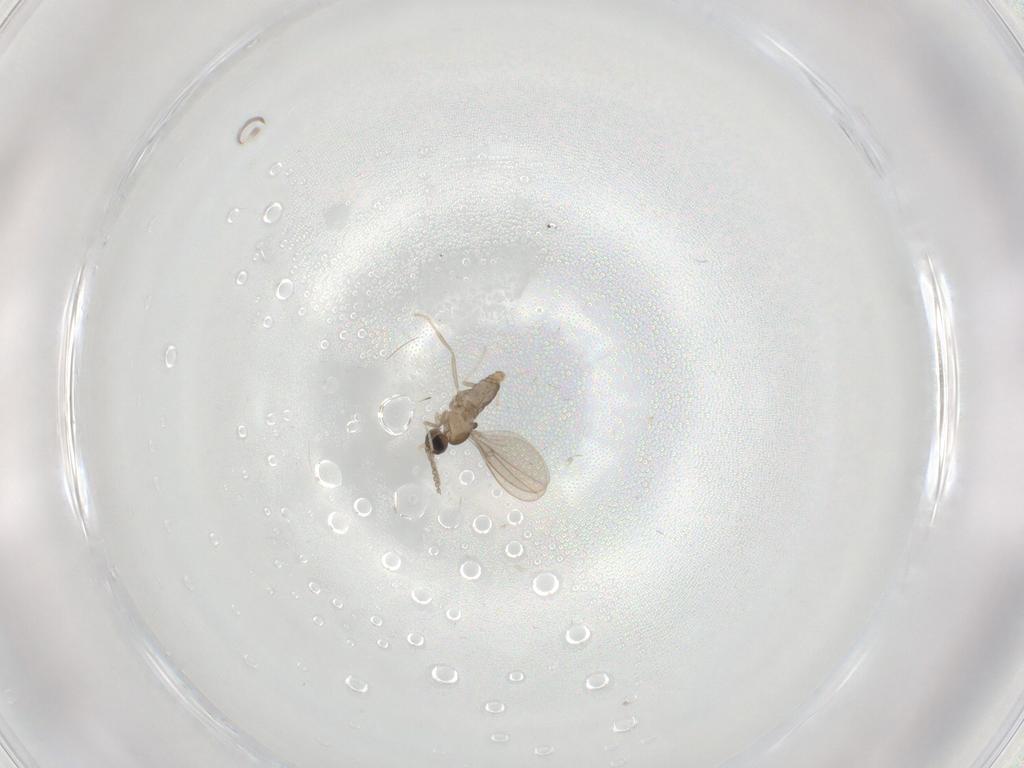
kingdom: Animalia
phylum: Arthropoda
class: Insecta
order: Diptera
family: Cecidomyiidae
